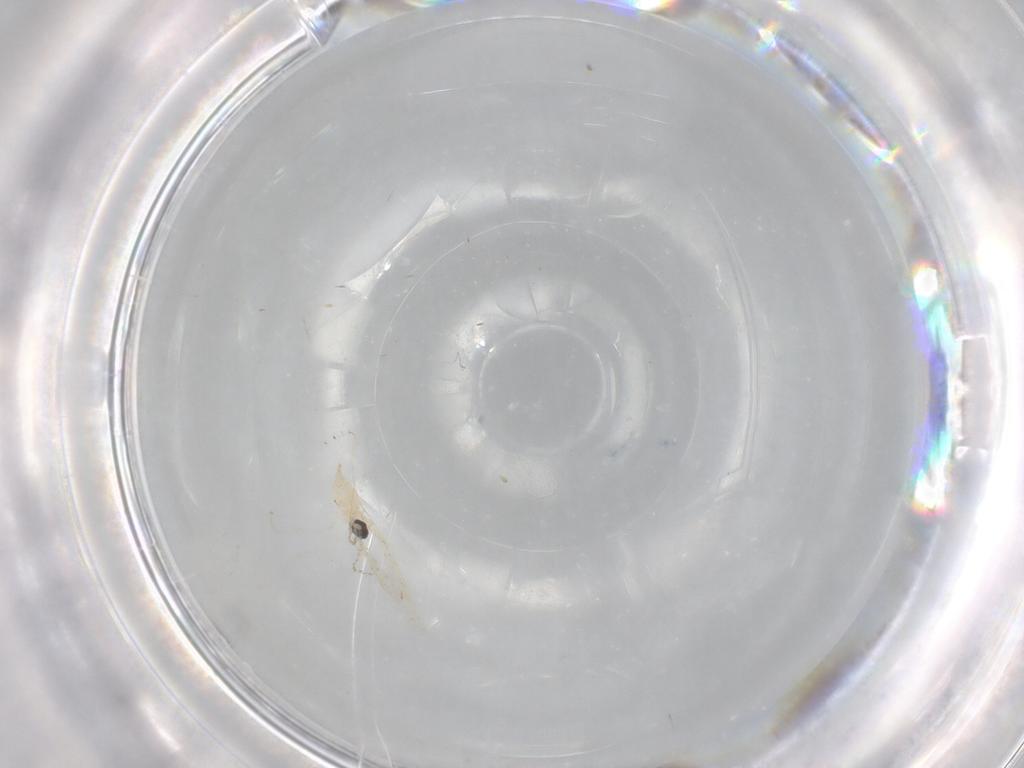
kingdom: Animalia
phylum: Arthropoda
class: Insecta
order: Diptera
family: Cecidomyiidae
